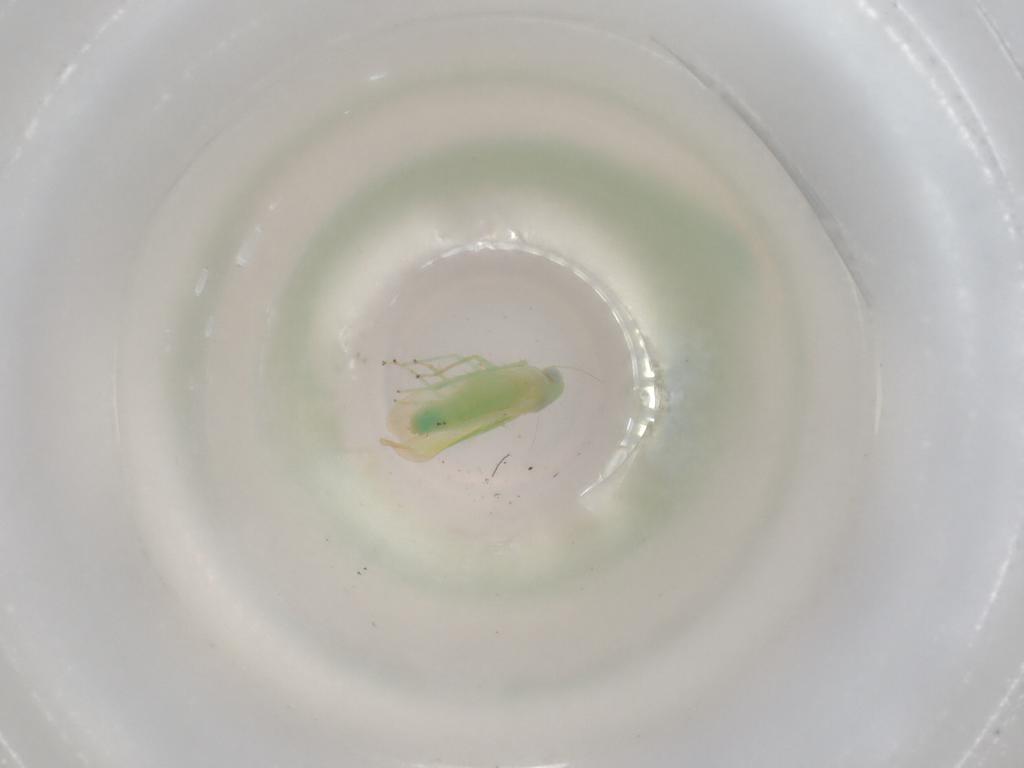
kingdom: Animalia
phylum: Arthropoda
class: Insecta
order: Hemiptera
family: Cicadellidae
